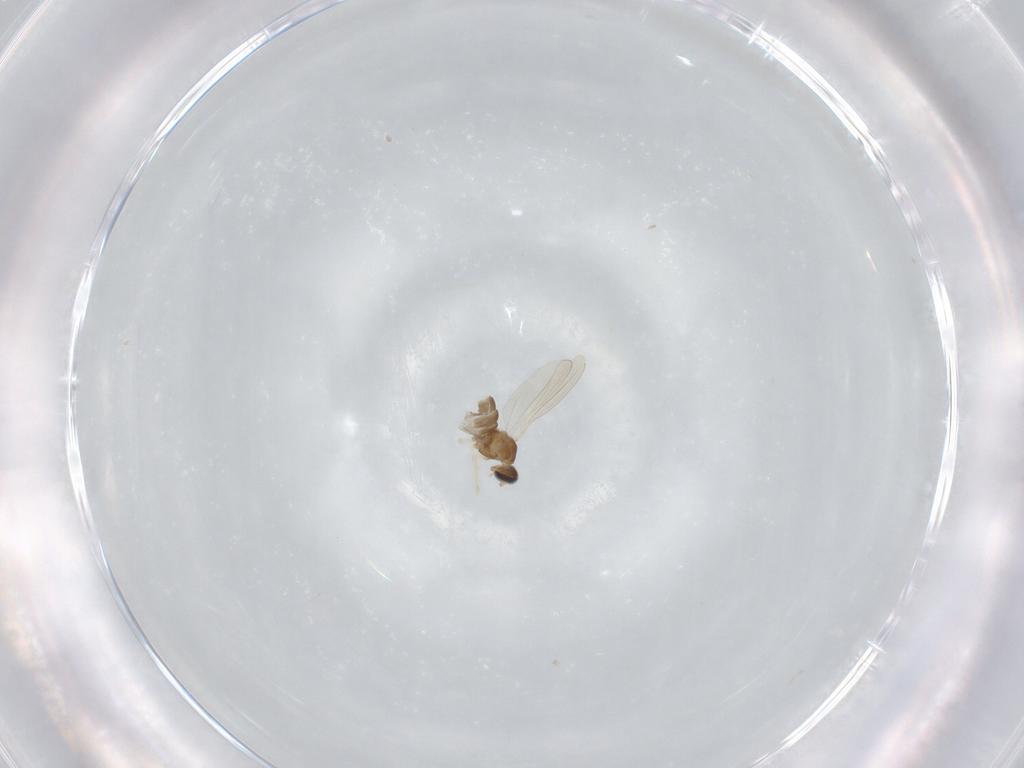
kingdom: Animalia
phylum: Arthropoda
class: Insecta
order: Diptera
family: Cecidomyiidae
